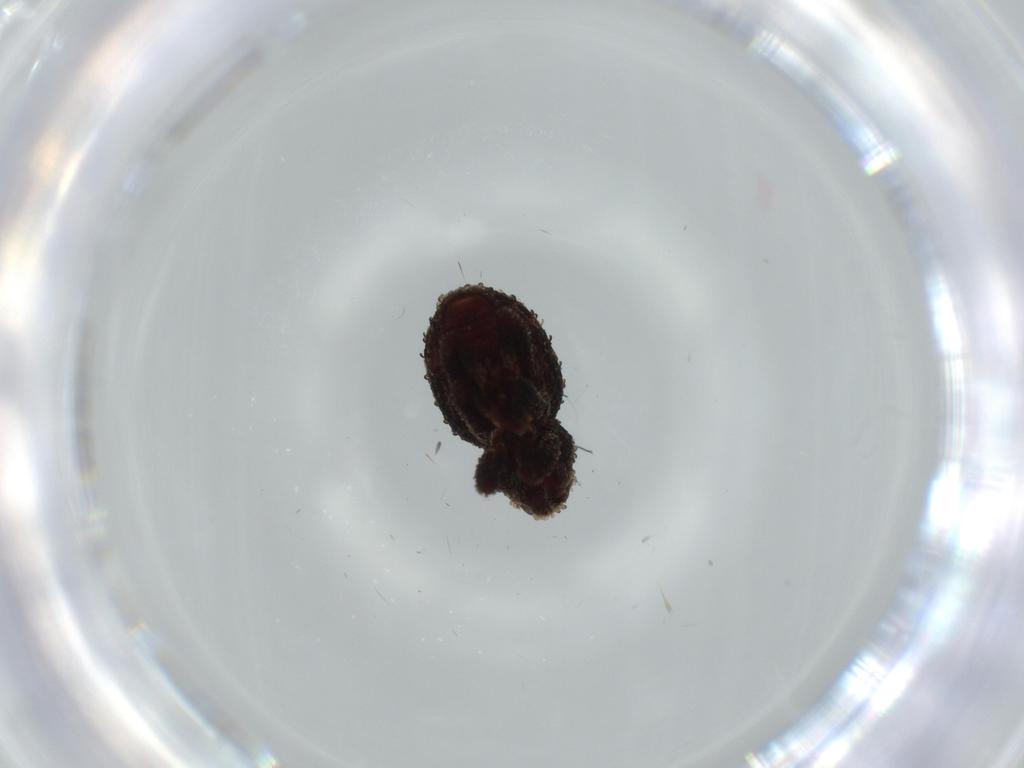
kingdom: Animalia
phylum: Arthropoda
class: Insecta
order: Coleoptera
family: Curculionidae
